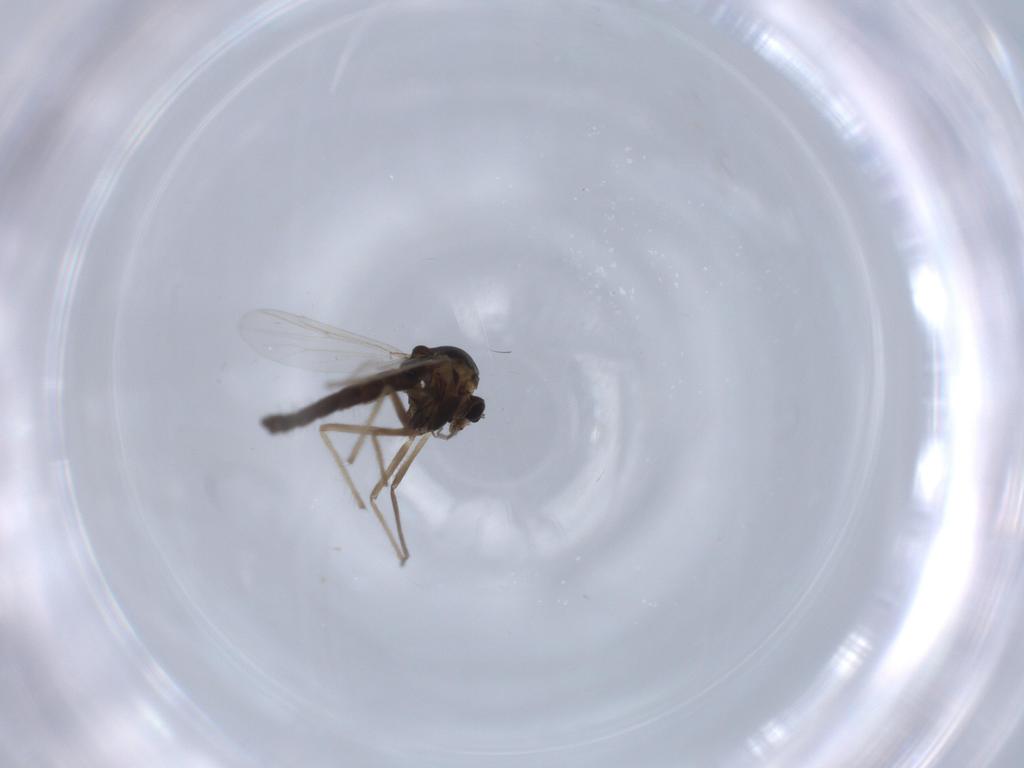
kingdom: Animalia
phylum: Arthropoda
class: Insecta
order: Diptera
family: Chironomidae
